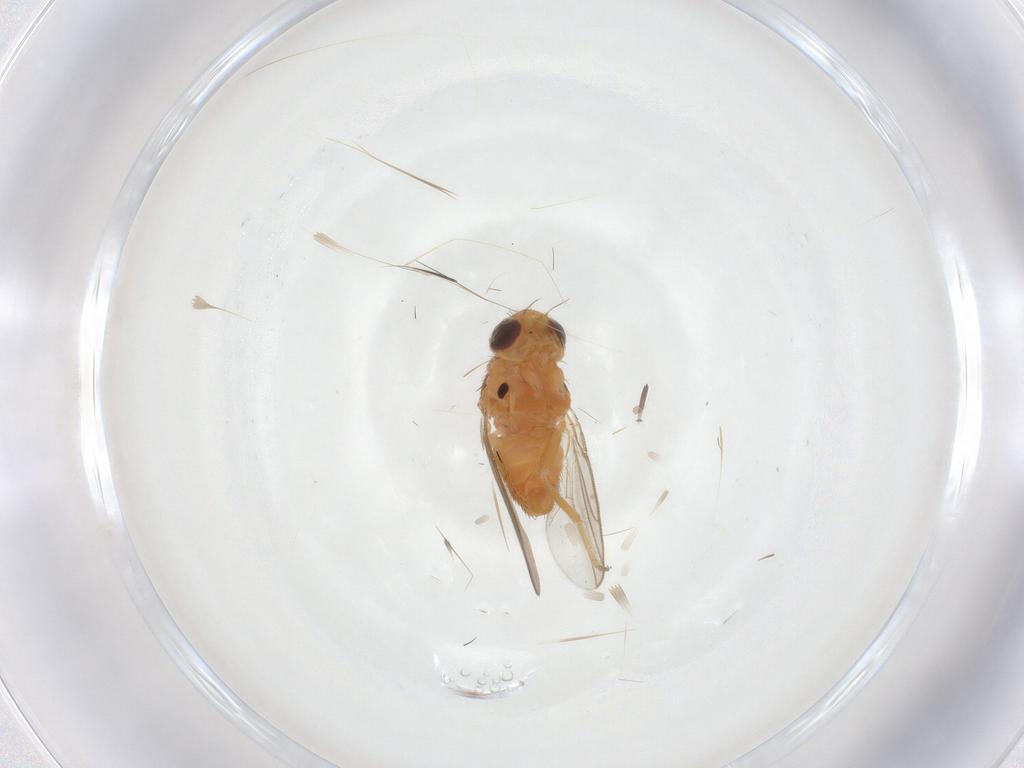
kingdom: Animalia
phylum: Arthropoda
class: Insecta
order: Diptera
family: Chloropidae
